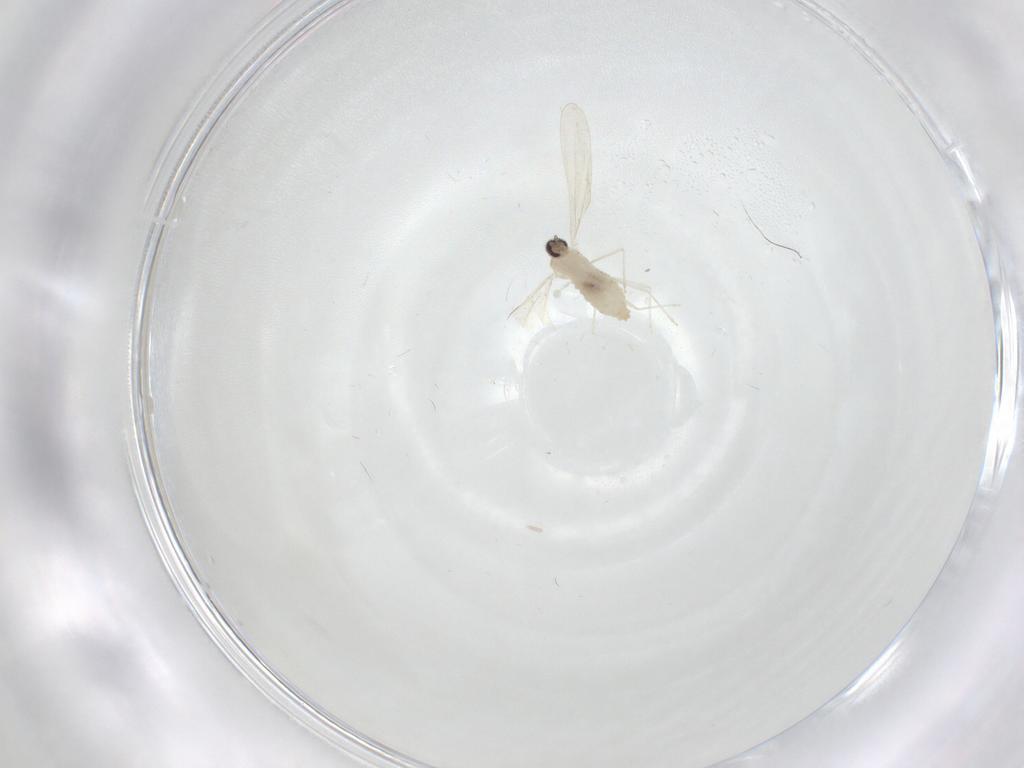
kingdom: Animalia
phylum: Arthropoda
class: Insecta
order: Diptera
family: Cecidomyiidae
